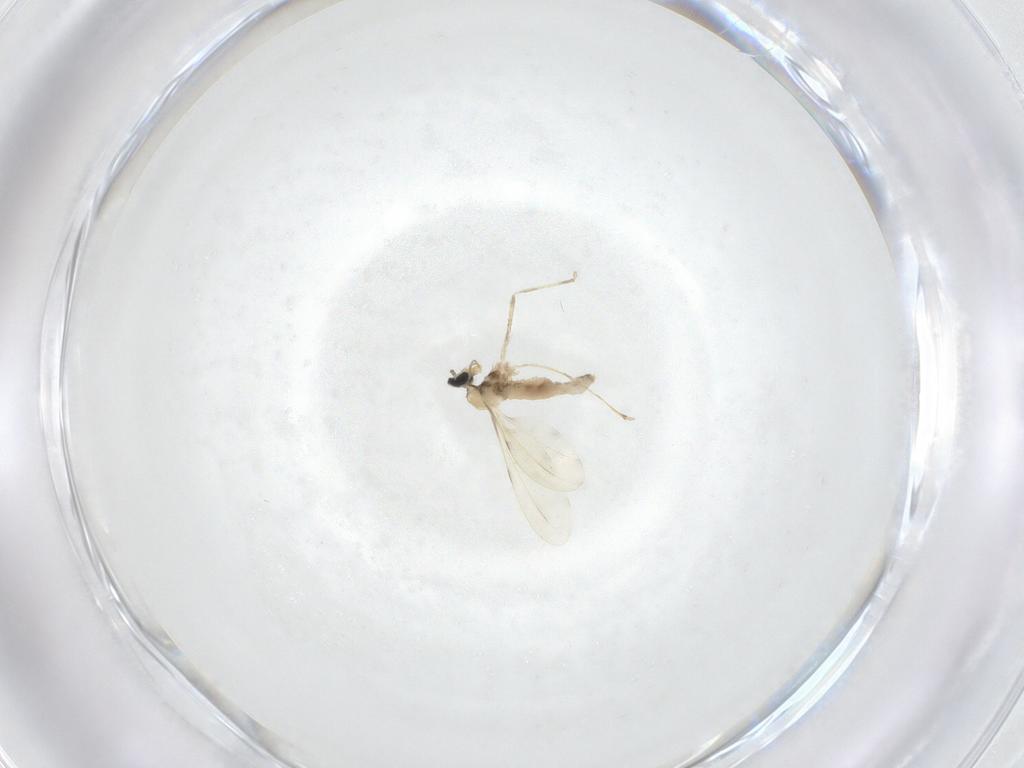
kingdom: Animalia
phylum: Arthropoda
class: Insecta
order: Diptera
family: Cecidomyiidae
